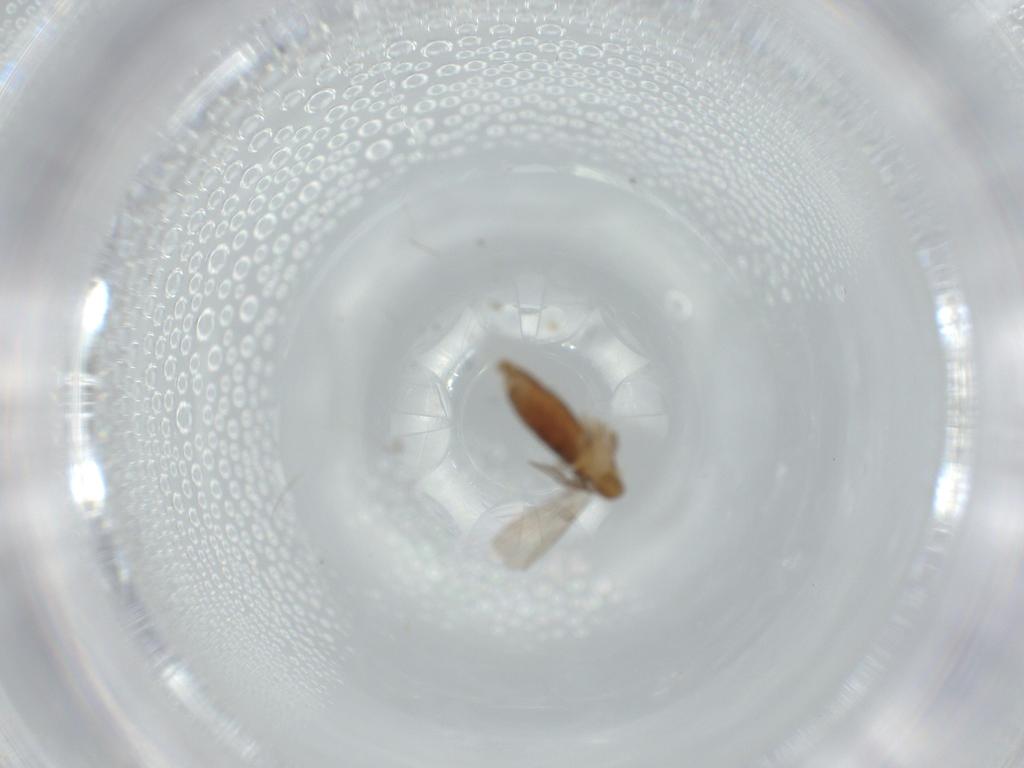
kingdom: Animalia
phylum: Arthropoda
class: Insecta
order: Diptera
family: Psychodidae
